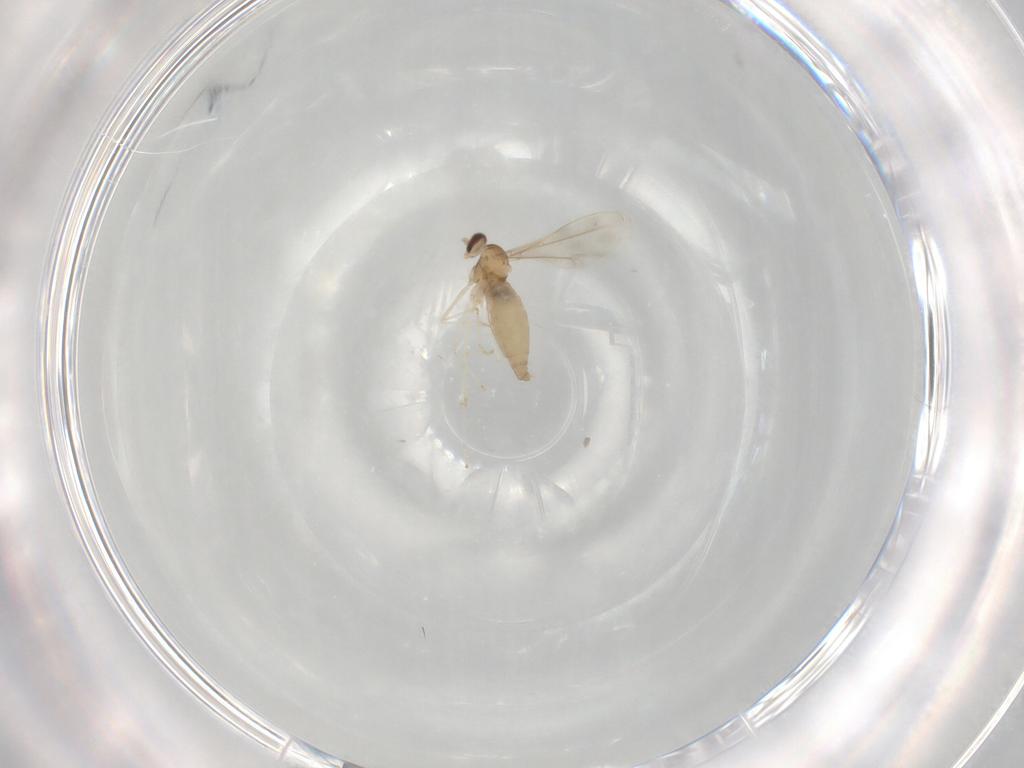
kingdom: Animalia
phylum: Arthropoda
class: Insecta
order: Diptera
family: Cecidomyiidae
